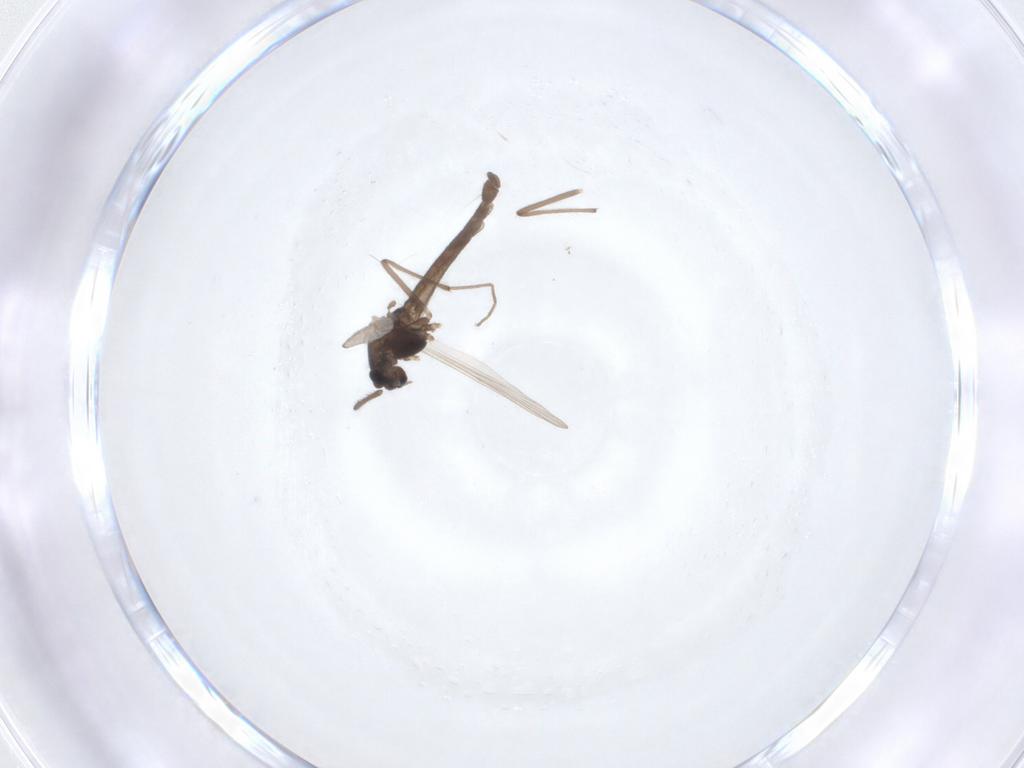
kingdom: Animalia
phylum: Arthropoda
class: Insecta
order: Diptera
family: Chironomidae
